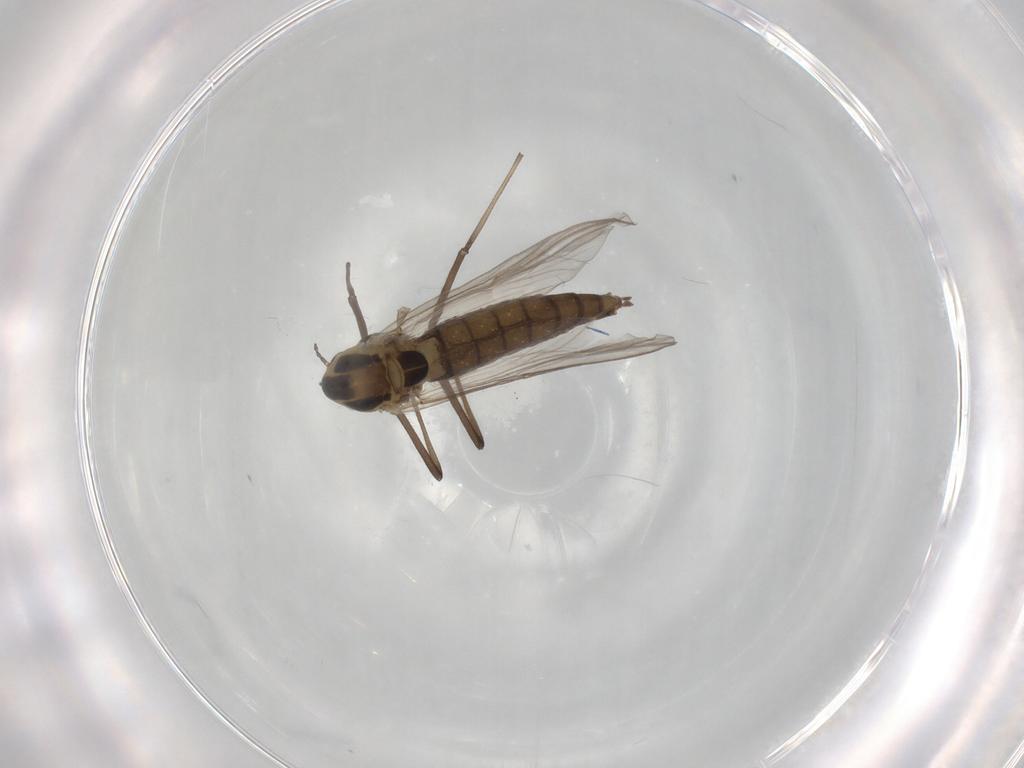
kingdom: Animalia
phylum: Arthropoda
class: Insecta
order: Diptera
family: Chironomidae
